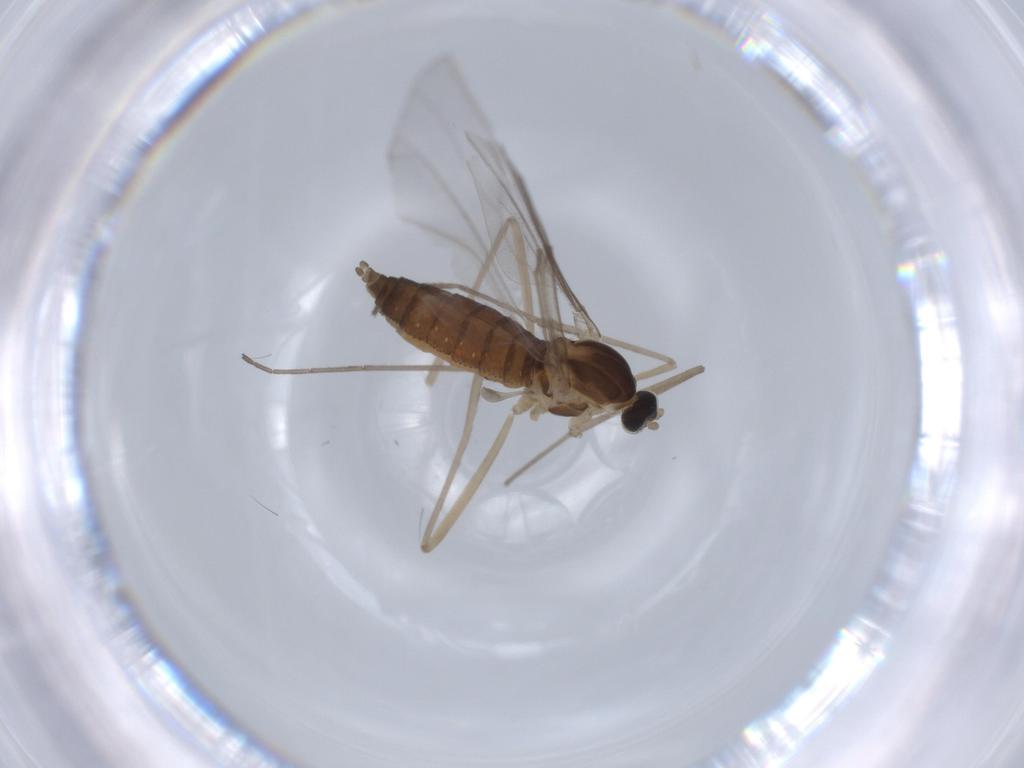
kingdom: Animalia
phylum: Arthropoda
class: Insecta
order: Diptera
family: Cecidomyiidae
